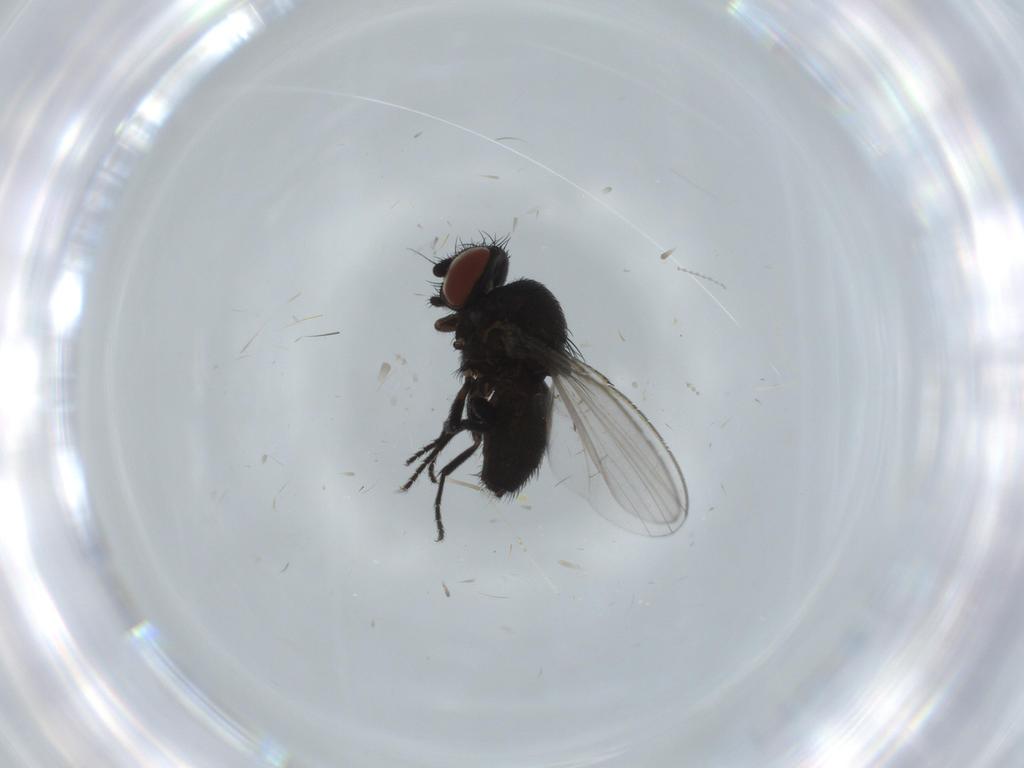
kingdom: Animalia
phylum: Arthropoda
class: Insecta
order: Diptera
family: Milichiidae
